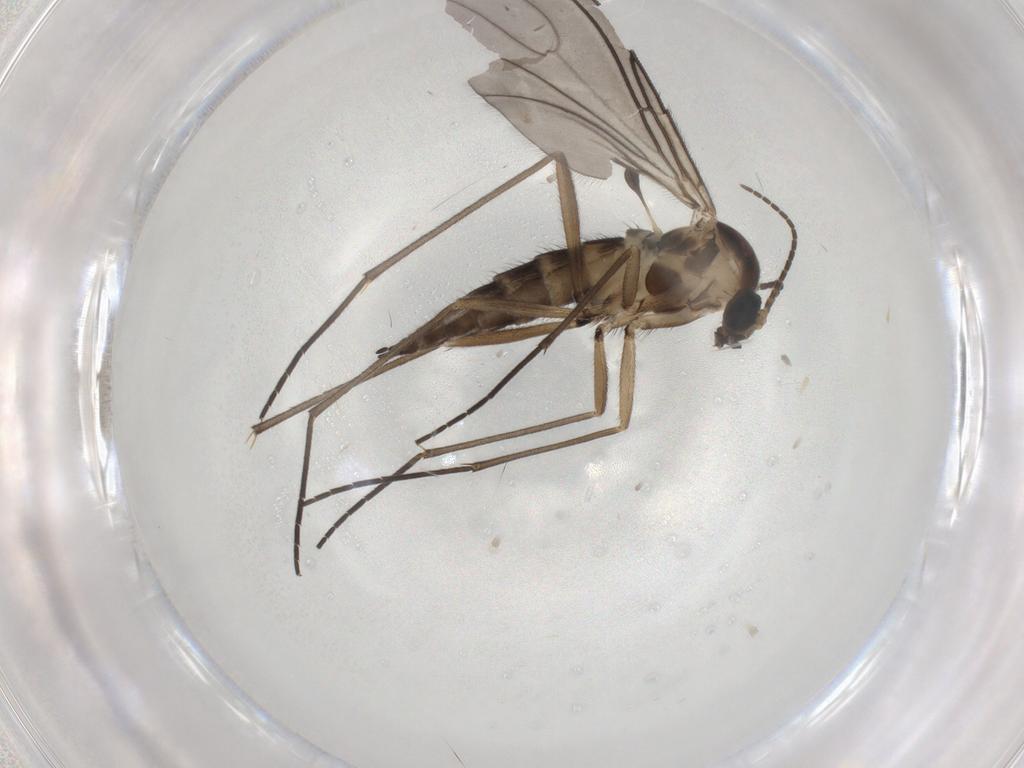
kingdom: Animalia
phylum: Arthropoda
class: Insecta
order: Diptera
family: Sciaridae
